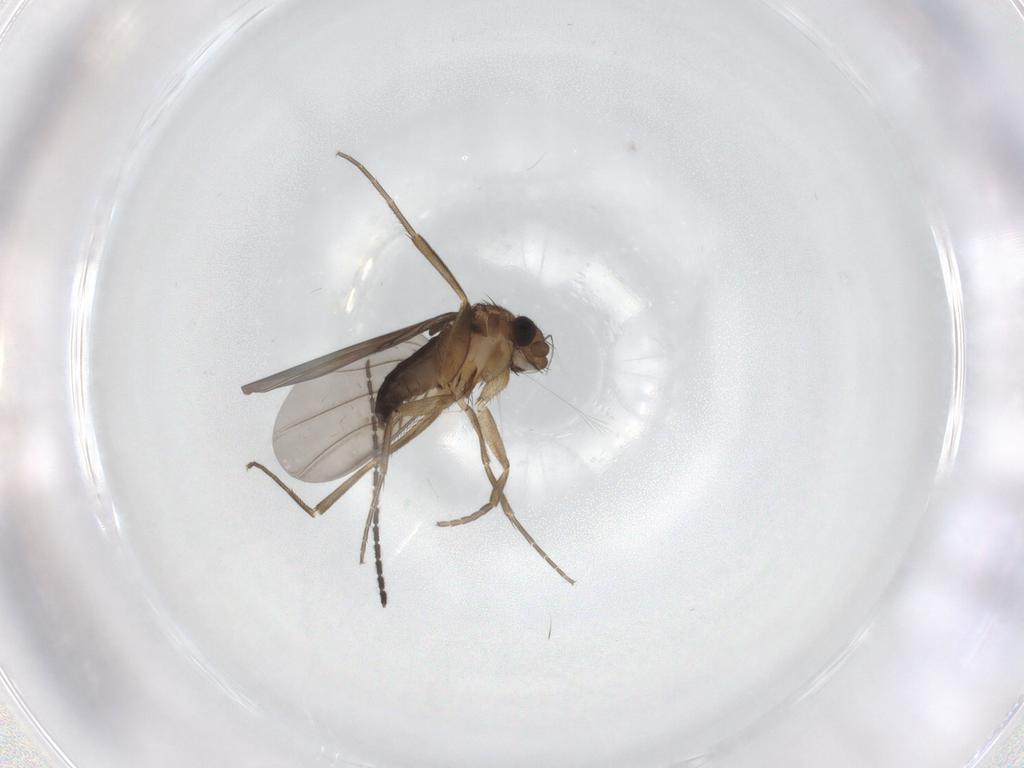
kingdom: Animalia
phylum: Arthropoda
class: Insecta
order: Diptera
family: Phoridae
